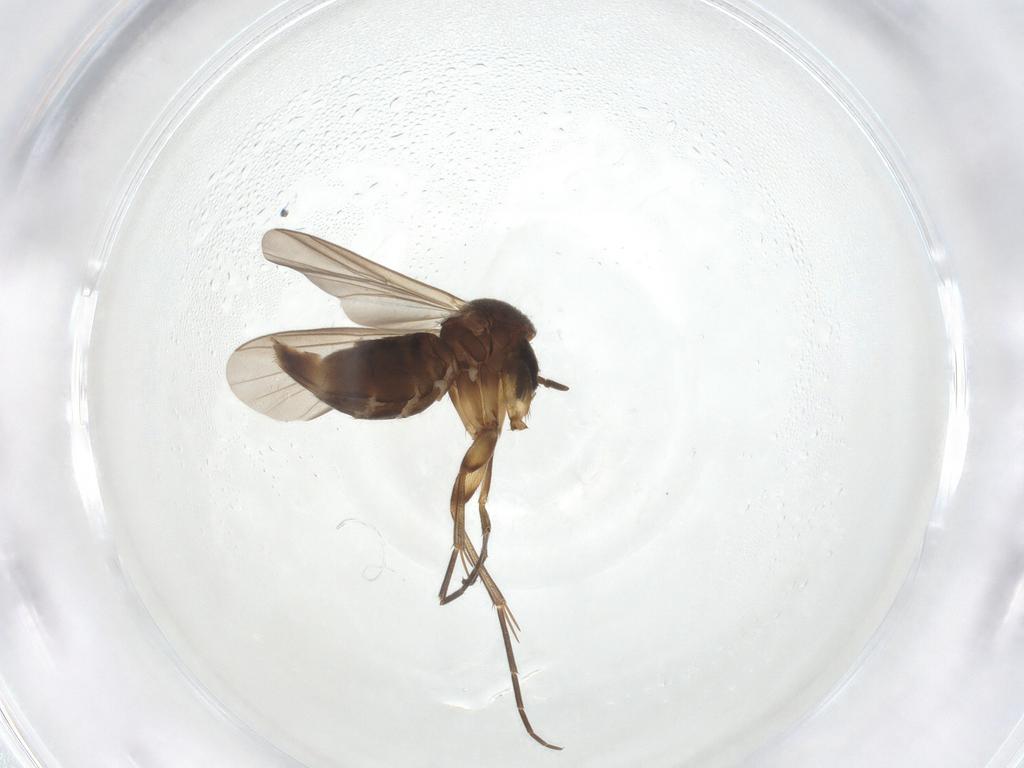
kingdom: Animalia
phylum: Arthropoda
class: Insecta
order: Diptera
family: Mycetophilidae
